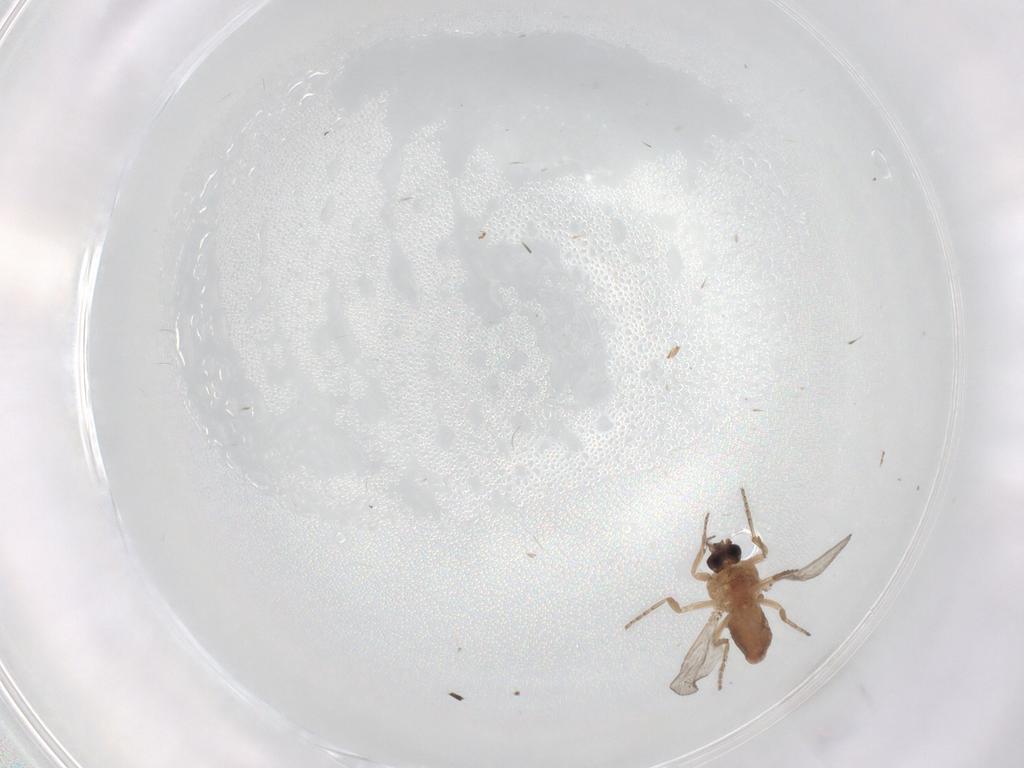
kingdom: Animalia
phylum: Arthropoda
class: Insecta
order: Diptera
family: Chironomidae
